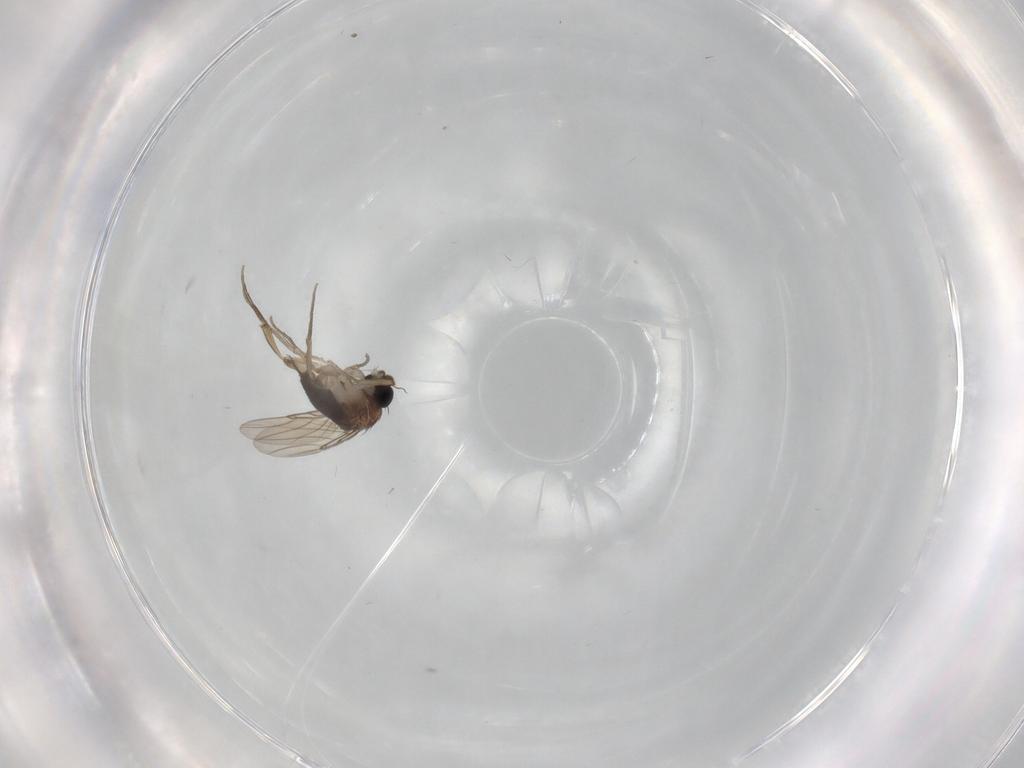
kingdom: Animalia
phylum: Arthropoda
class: Insecta
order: Diptera
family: Phoridae
